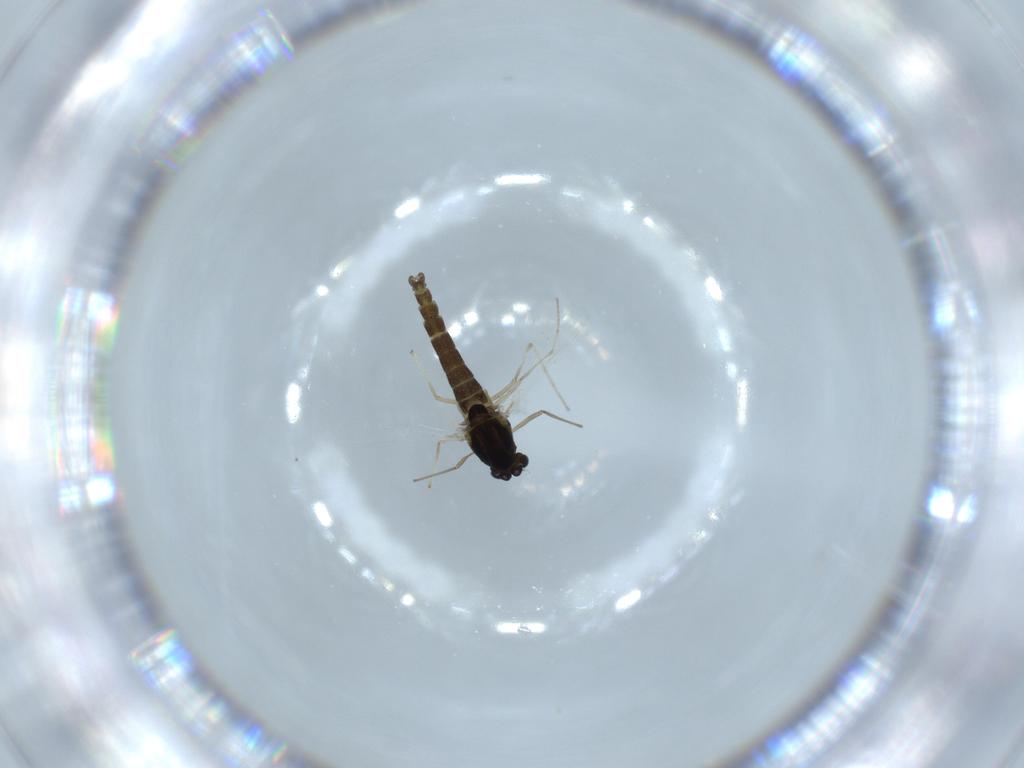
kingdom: Animalia
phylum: Arthropoda
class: Insecta
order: Diptera
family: Chironomidae
